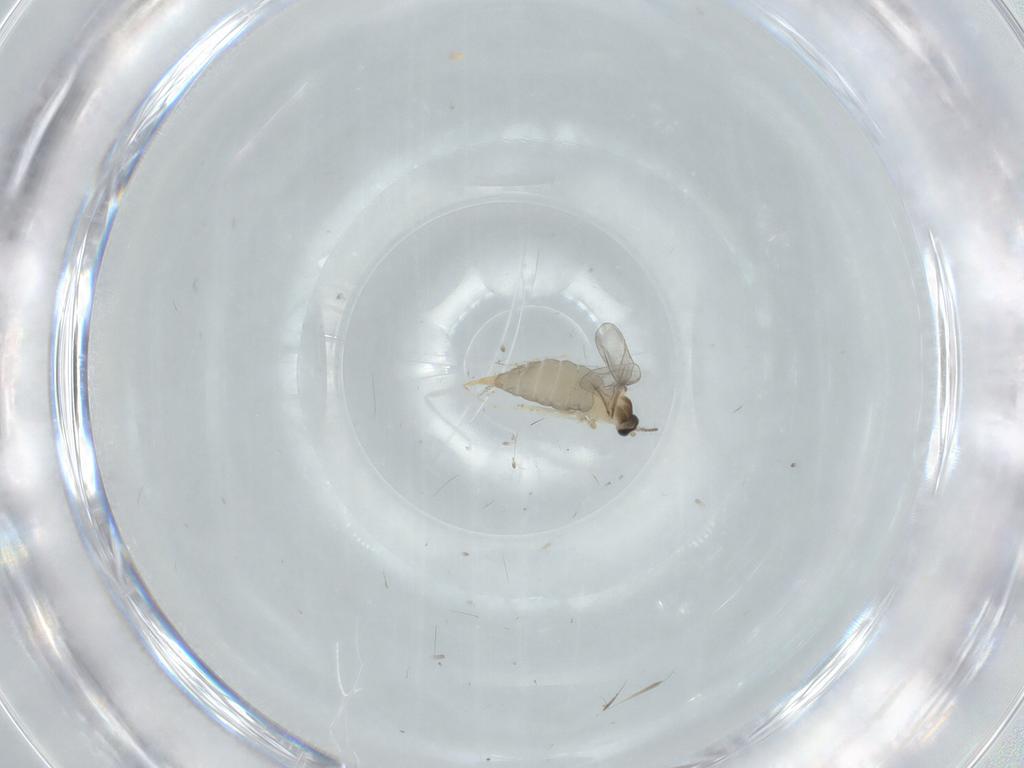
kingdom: Animalia
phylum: Arthropoda
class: Insecta
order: Diptera
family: Sciaridae
